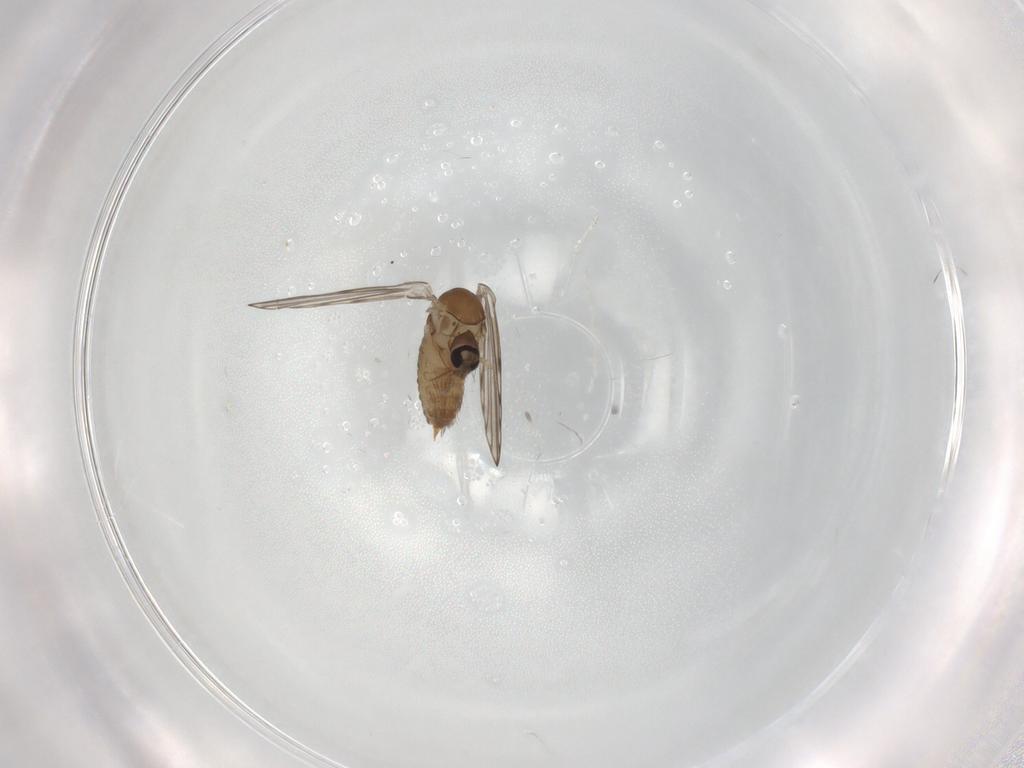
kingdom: Animalia
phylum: Arthropoda
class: Insecta
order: Diptera
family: Psychodidae
